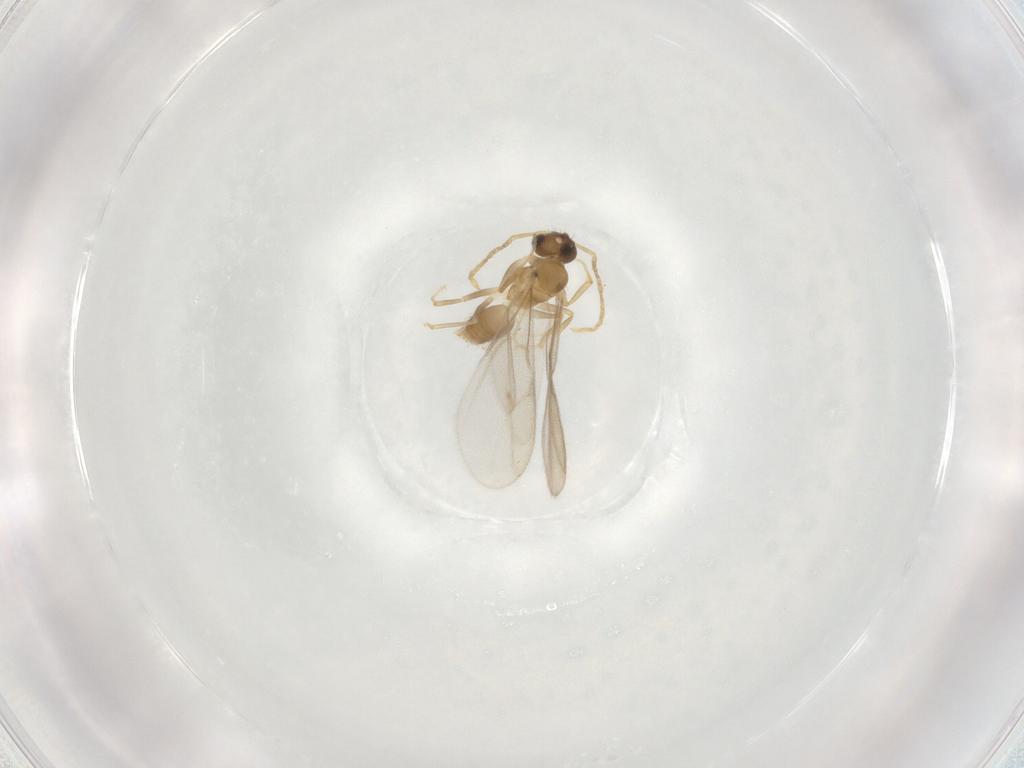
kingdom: Animalia
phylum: Arthropoda
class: Insecta
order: Hymenoptera
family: Formicidae
